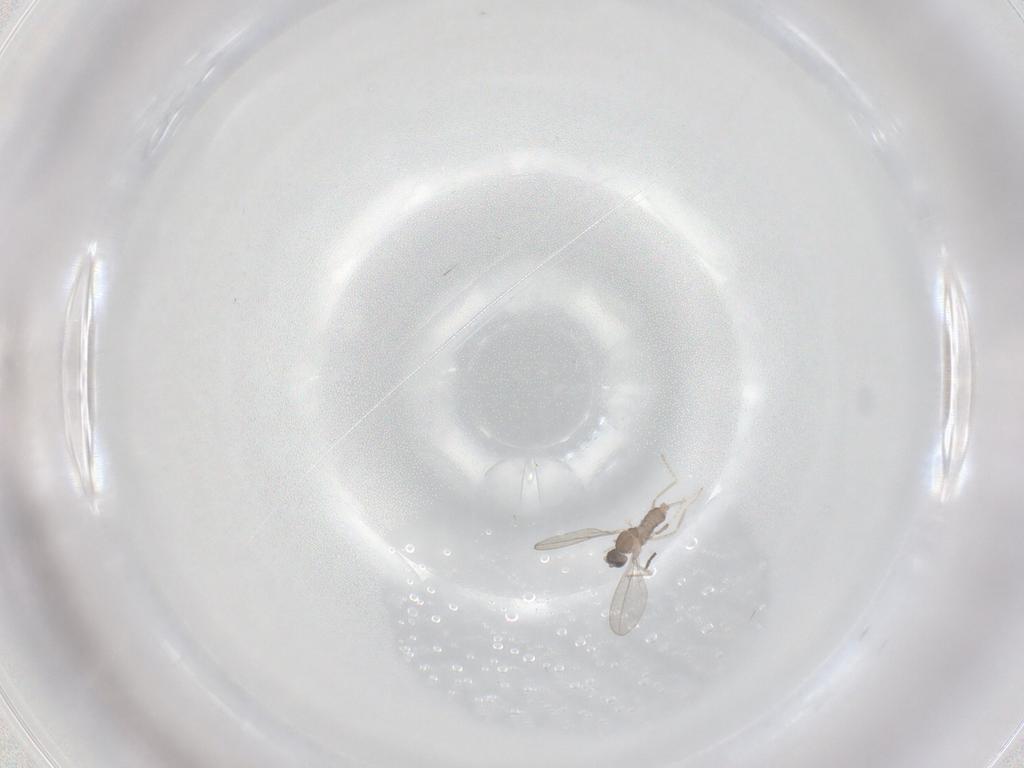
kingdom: Animalia
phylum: Arthropoda
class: Insecta
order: Diptera
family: Cecidomyiidae
